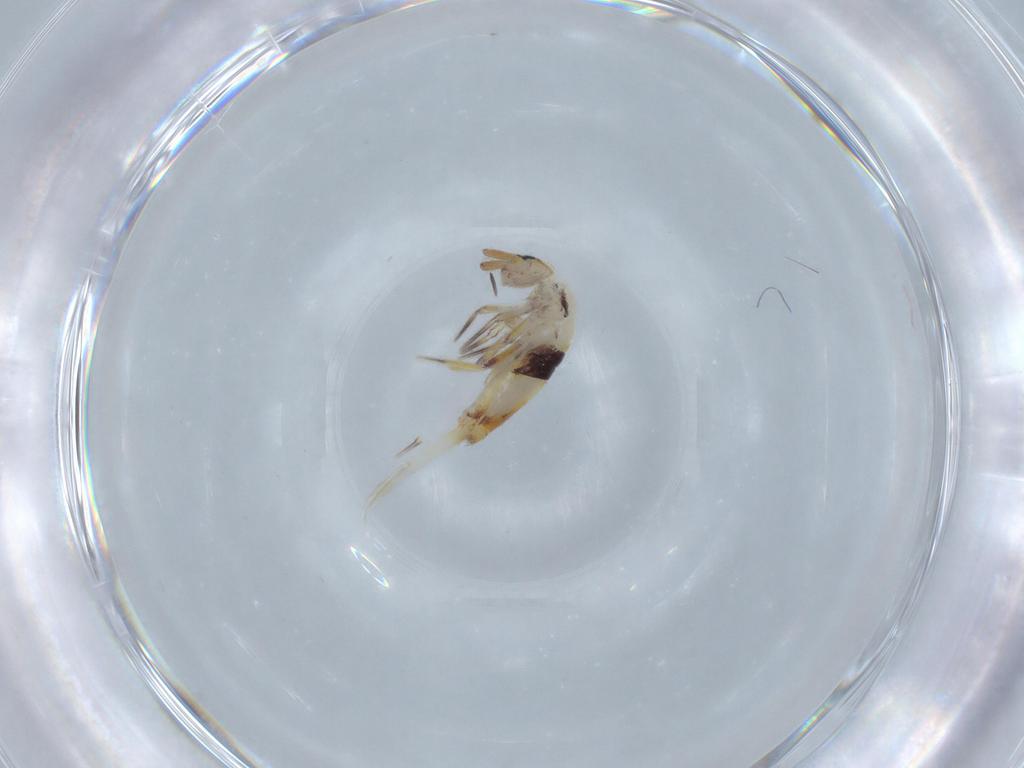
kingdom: Animalia
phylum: Arthropoda
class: Collembola
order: Entomobryomorpha
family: Entomobryidae
